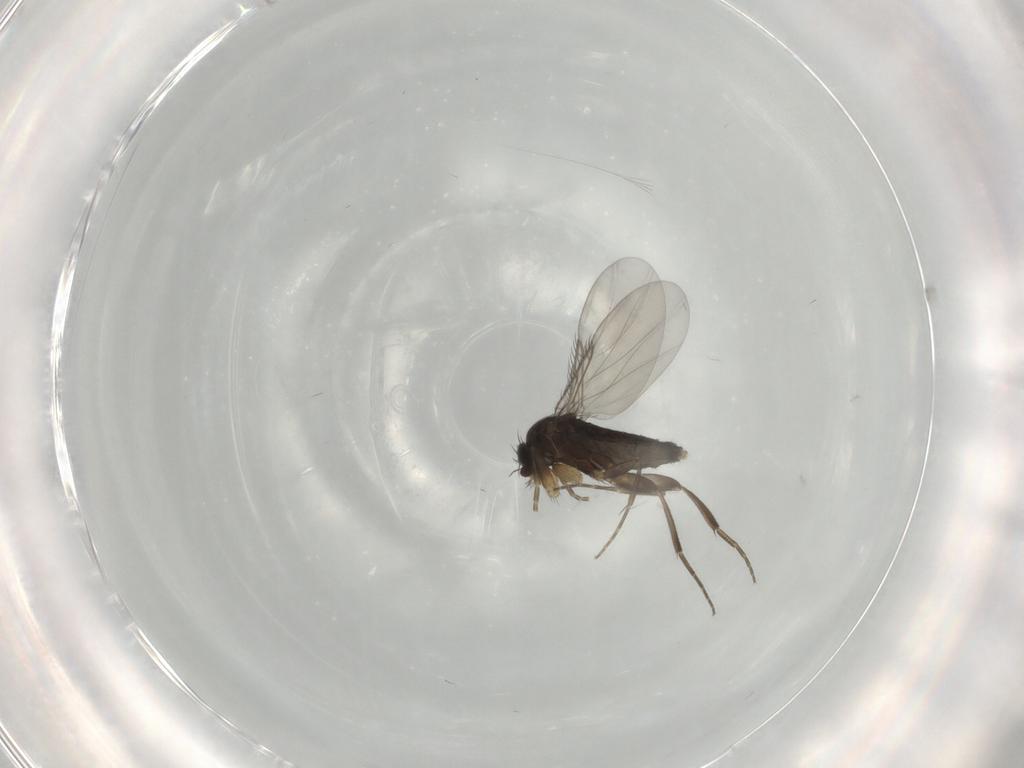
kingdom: Animalia
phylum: Arthropoda
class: Insecta
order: Diptera
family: Phoridae
